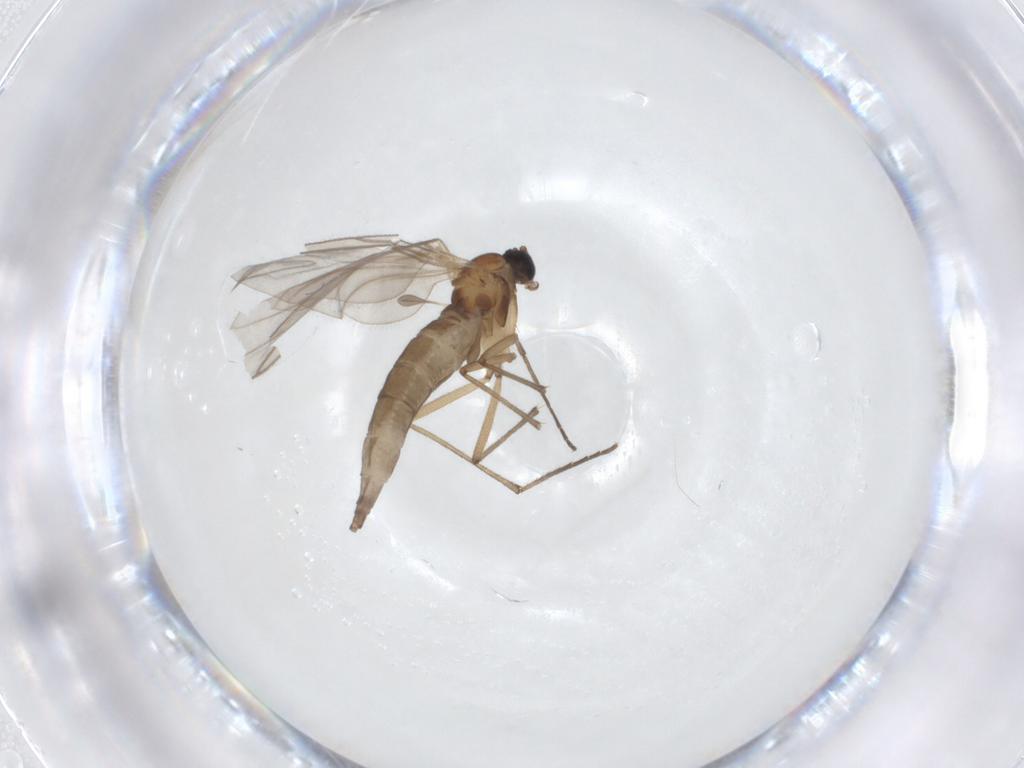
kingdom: Animalia
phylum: Arthropoda
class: Insecta
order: Diptera
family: Sciaridae
